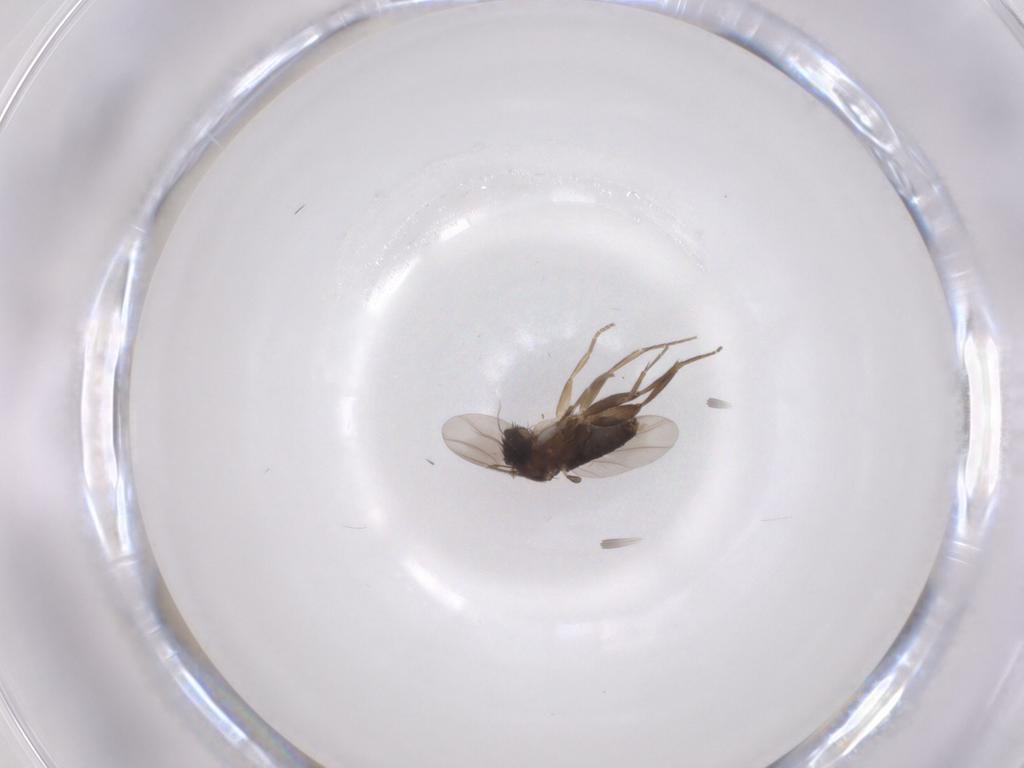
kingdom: Animalia
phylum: Arthropoda
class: Insecta
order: Diptera
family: Phoridae
